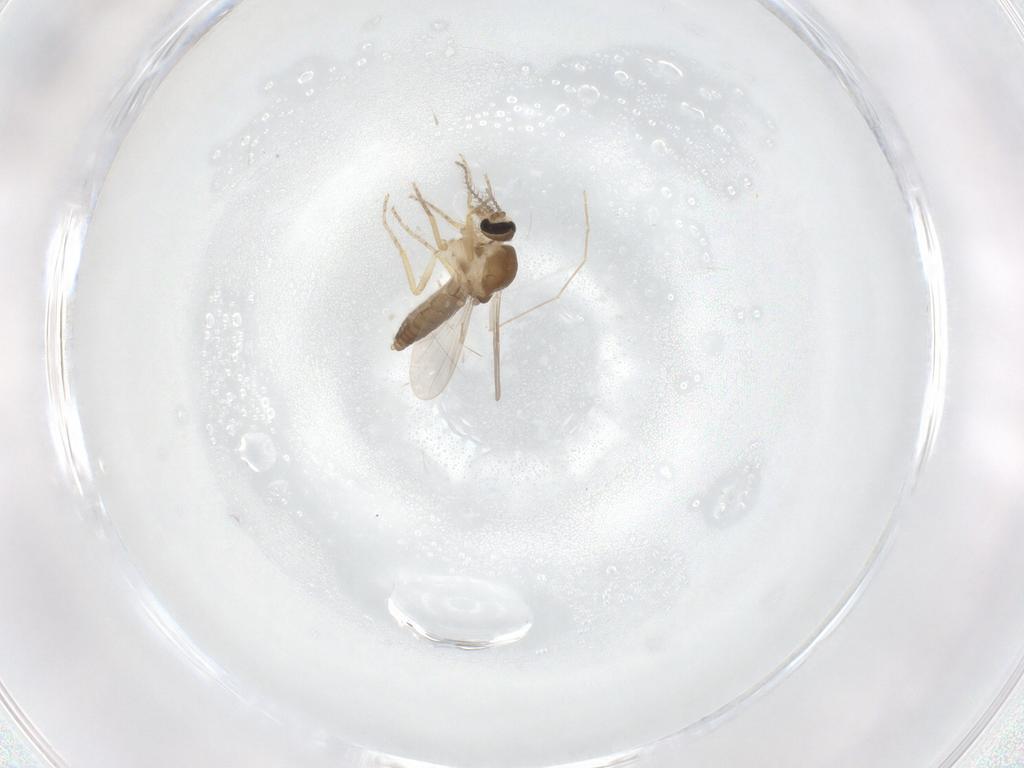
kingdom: Animalia
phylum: Arthropoda
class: Insecta
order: Diptera
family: Ceratopogonidae
